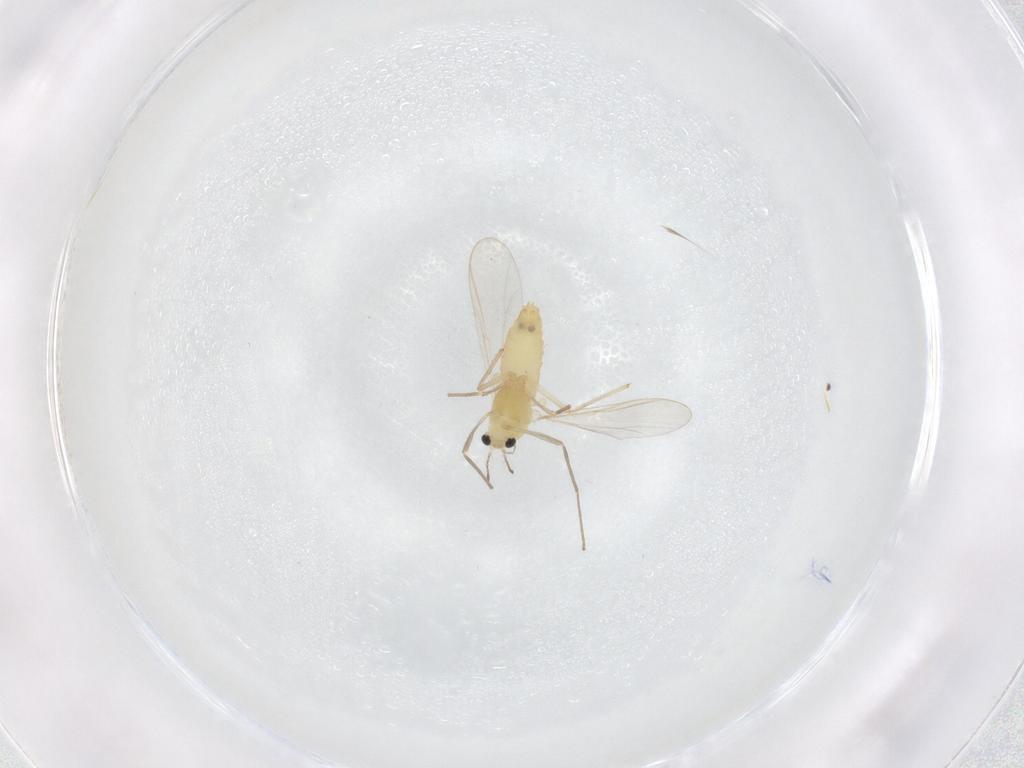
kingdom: Animalia
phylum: Arthropoda
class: Insecta
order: Diptera
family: Chironomidae
